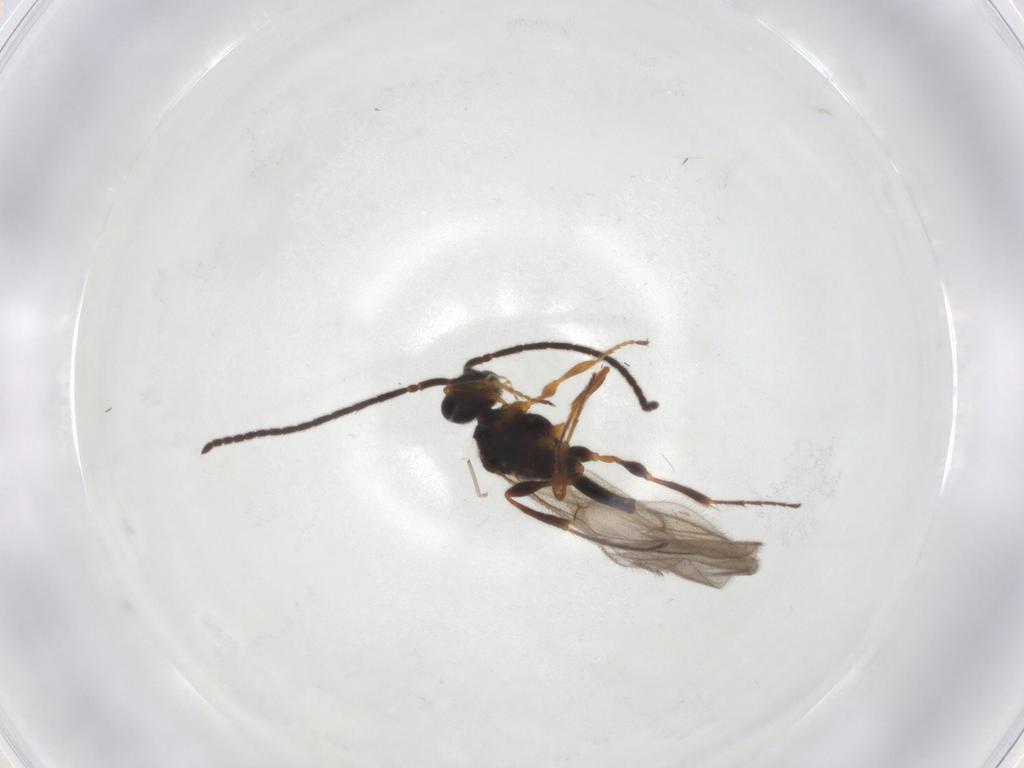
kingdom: Animalia
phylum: Arthropoda
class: Insecta
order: Hymenoptera
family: Diapriidae
